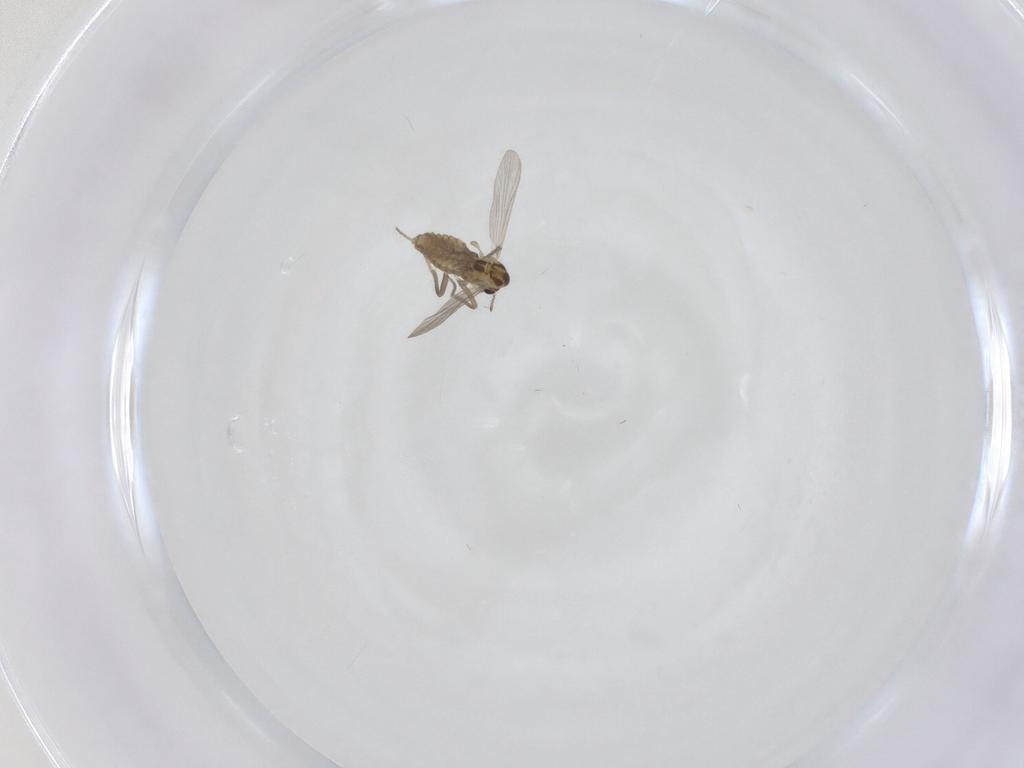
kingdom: Animalia
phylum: Arthropoda
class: Insecta
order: Diptera
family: Chironomidae
